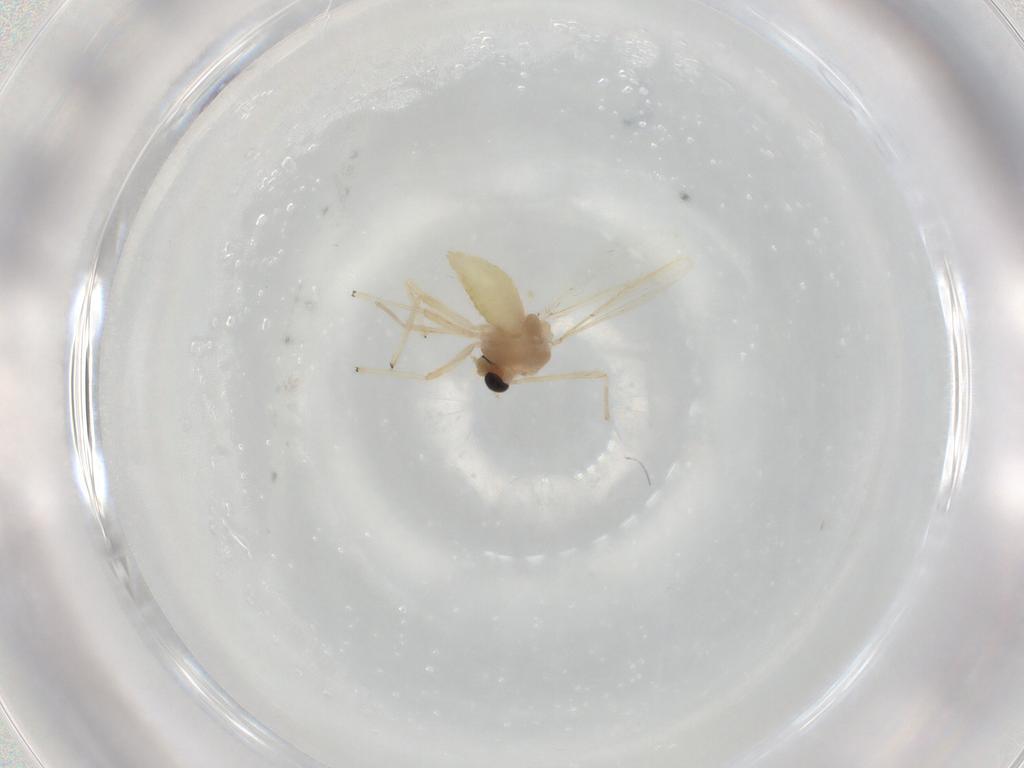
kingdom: Animalia
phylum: Arthropoda
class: Insecta
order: Diptera
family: Chironomidae
